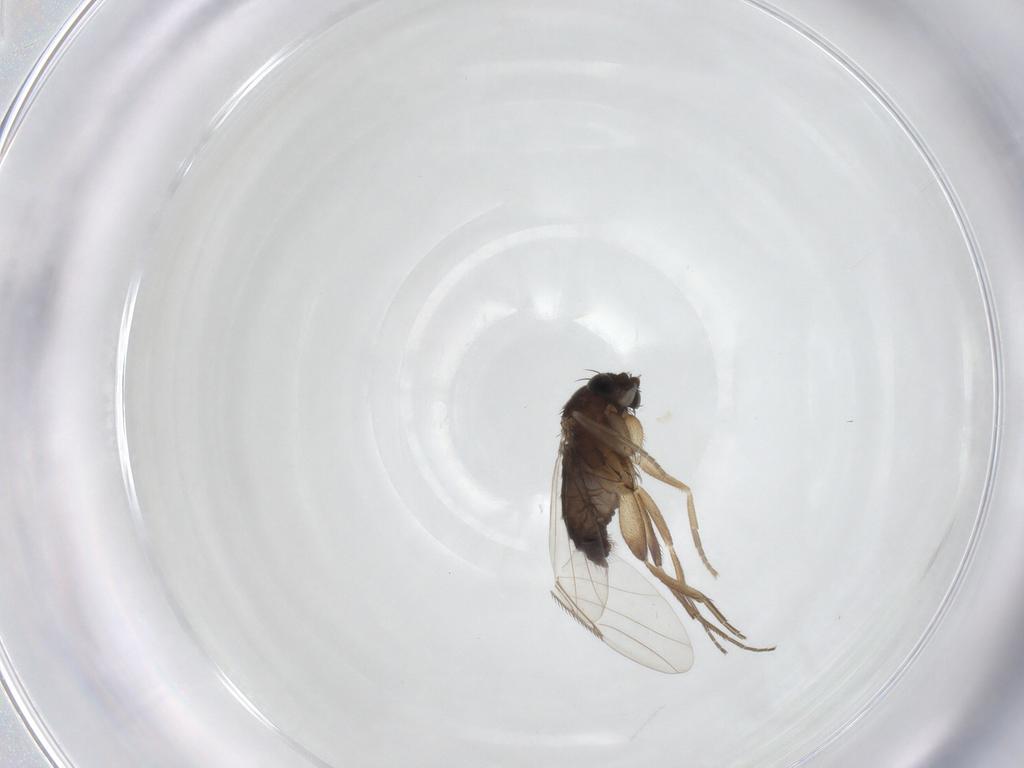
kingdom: Animalia
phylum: Arthropoda
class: Insecta
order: Diptera
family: Phoridae
